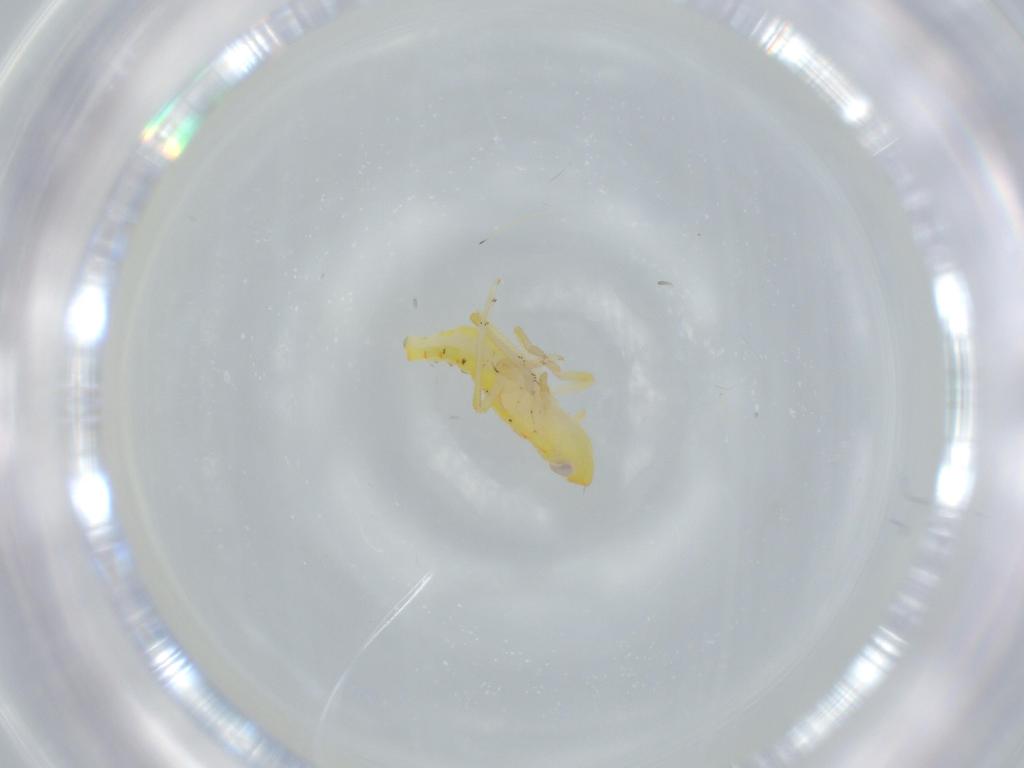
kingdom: Animalia
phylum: Arthropoda
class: Insecta
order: Hemiptera
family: Tropiduchidae
